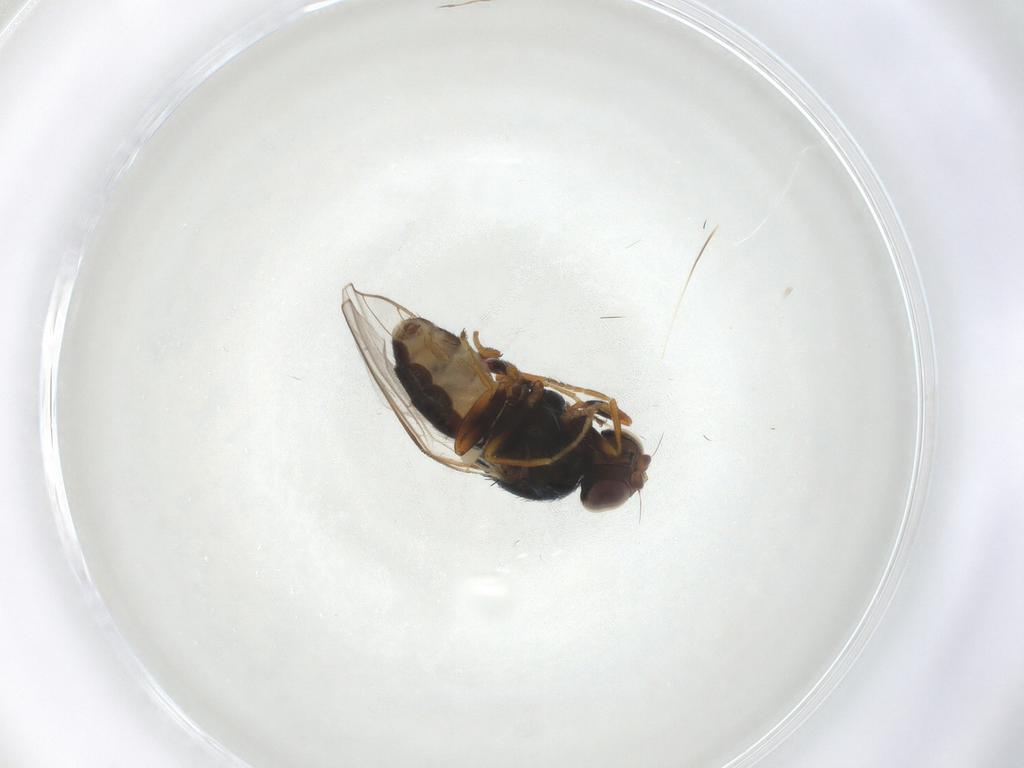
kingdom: Animalia
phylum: Arthropoda
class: Insecta
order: Diptera
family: Chloropidae
